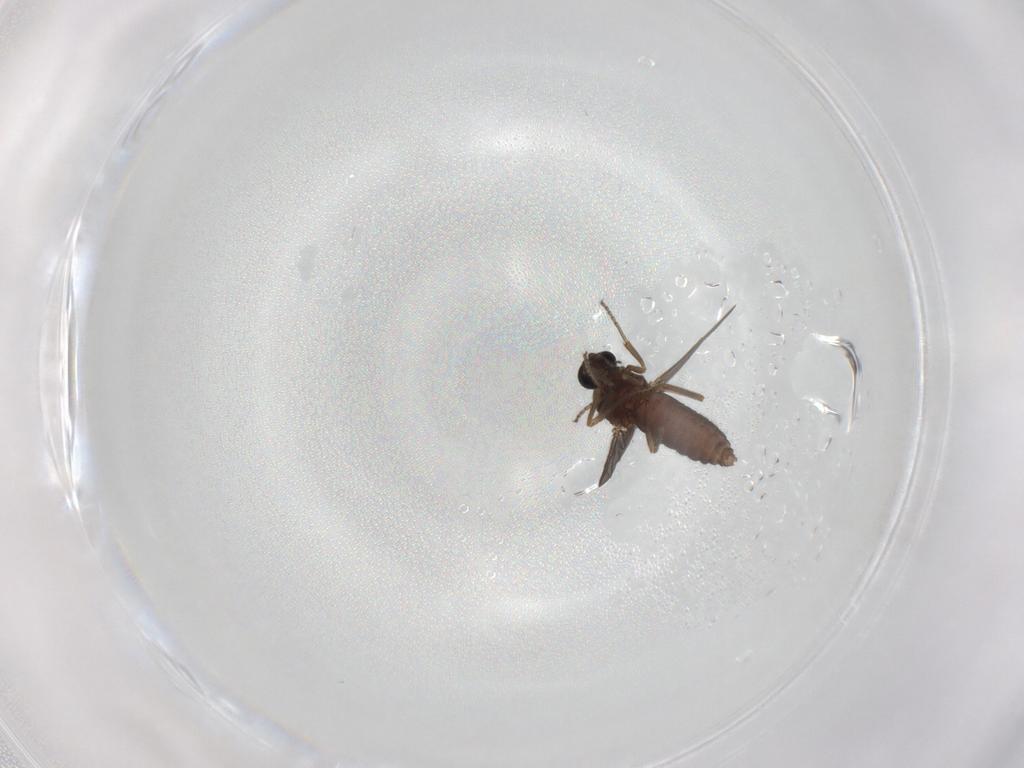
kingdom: Animalia
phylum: Arthropoda
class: Insecta
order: Diptera
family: Ceratopogonidae
